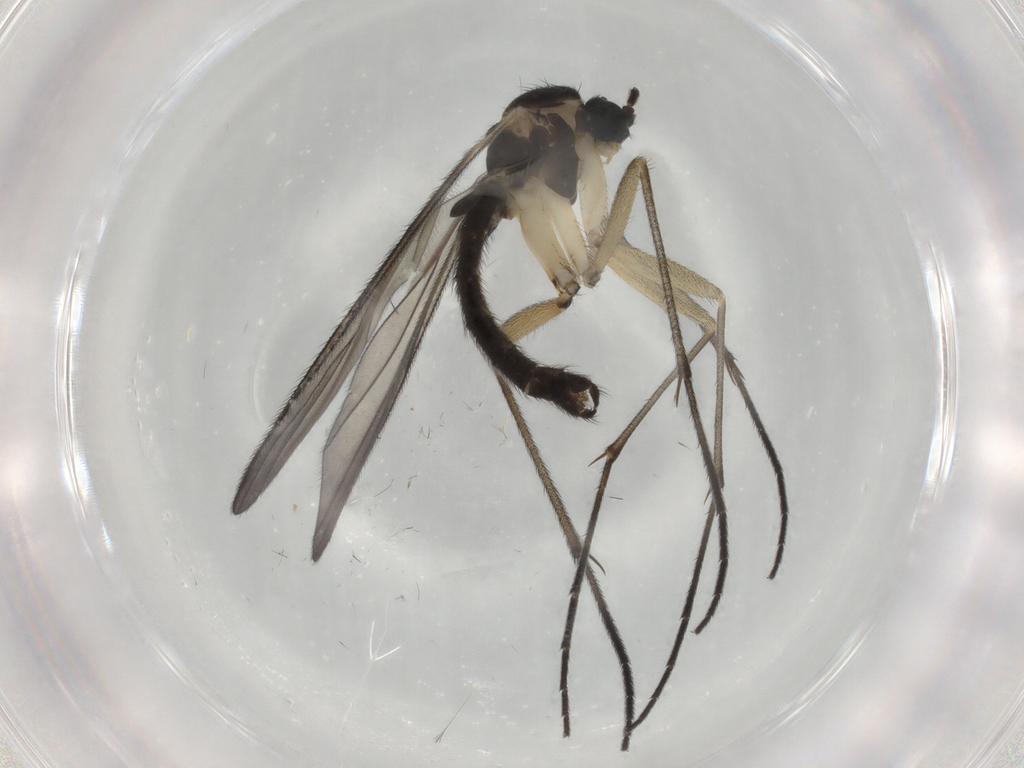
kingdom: Animalia
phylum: Arthropoda
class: Insecta
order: Diptera
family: Sciaridae
